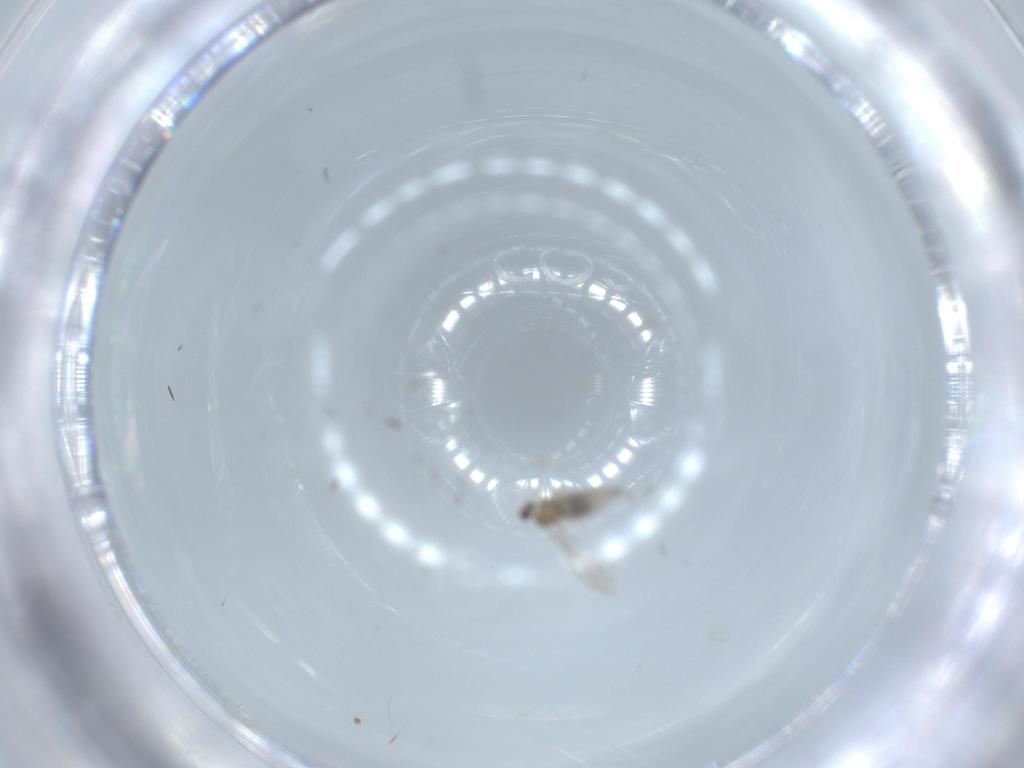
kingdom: Animalia
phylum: Arthropoda
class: Insecta
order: Diptera
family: Cecidomyiidae
